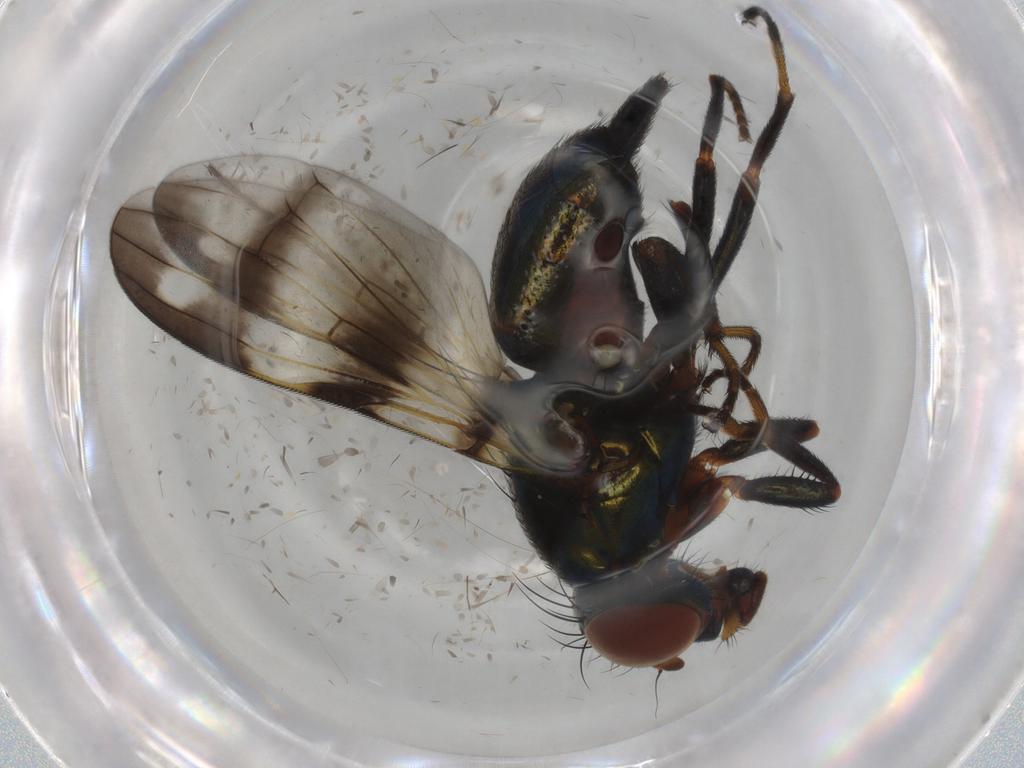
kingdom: Animalia
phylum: Arthropoda
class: Insecta
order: Diptera
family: Ulidiidae
